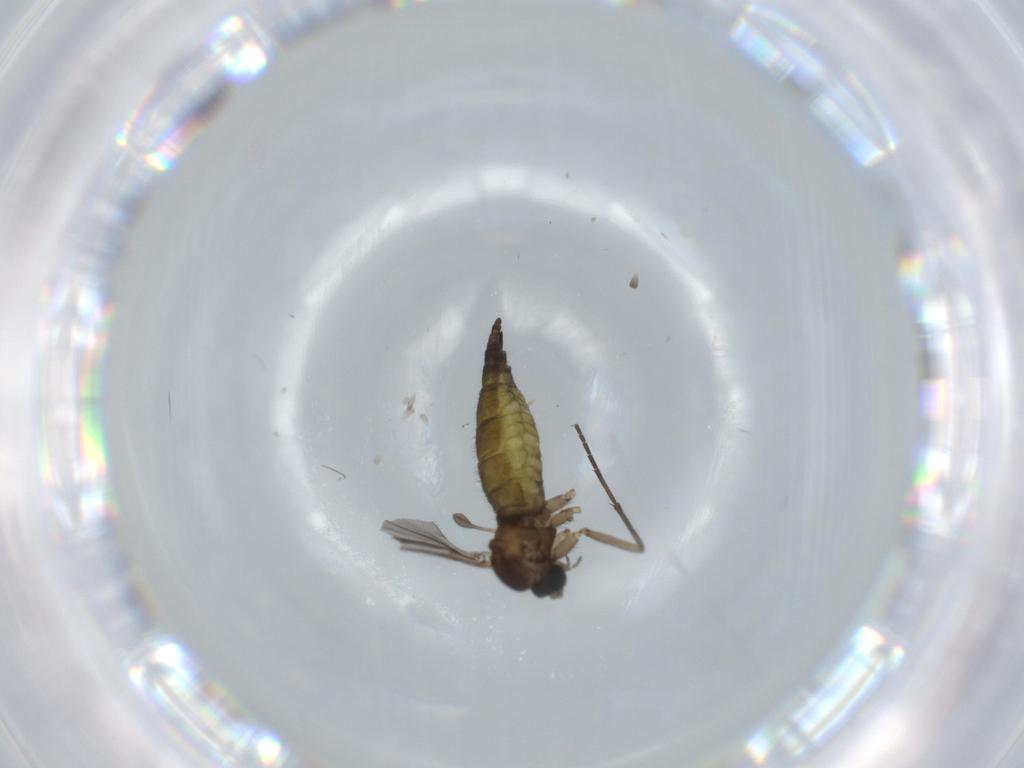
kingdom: Animalia
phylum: Arthropoda
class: Insecta
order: Diptera
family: Sciaridae
